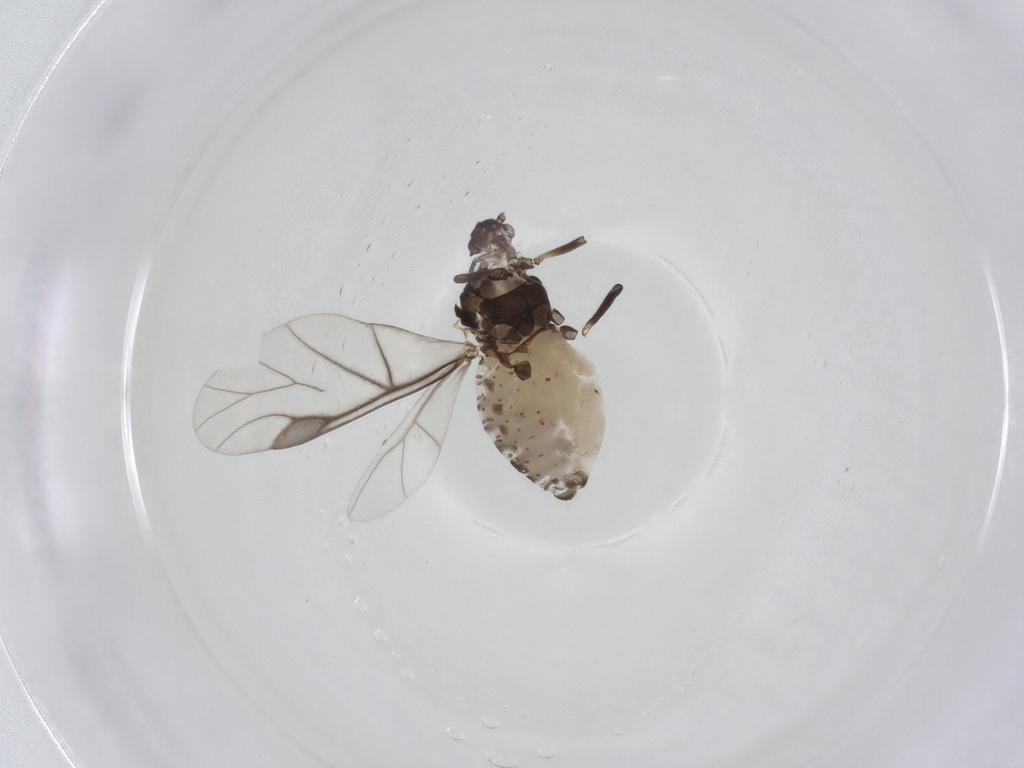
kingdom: Animalia
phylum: Arthropoda
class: Insecta
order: Hemiptera
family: Aphididae
